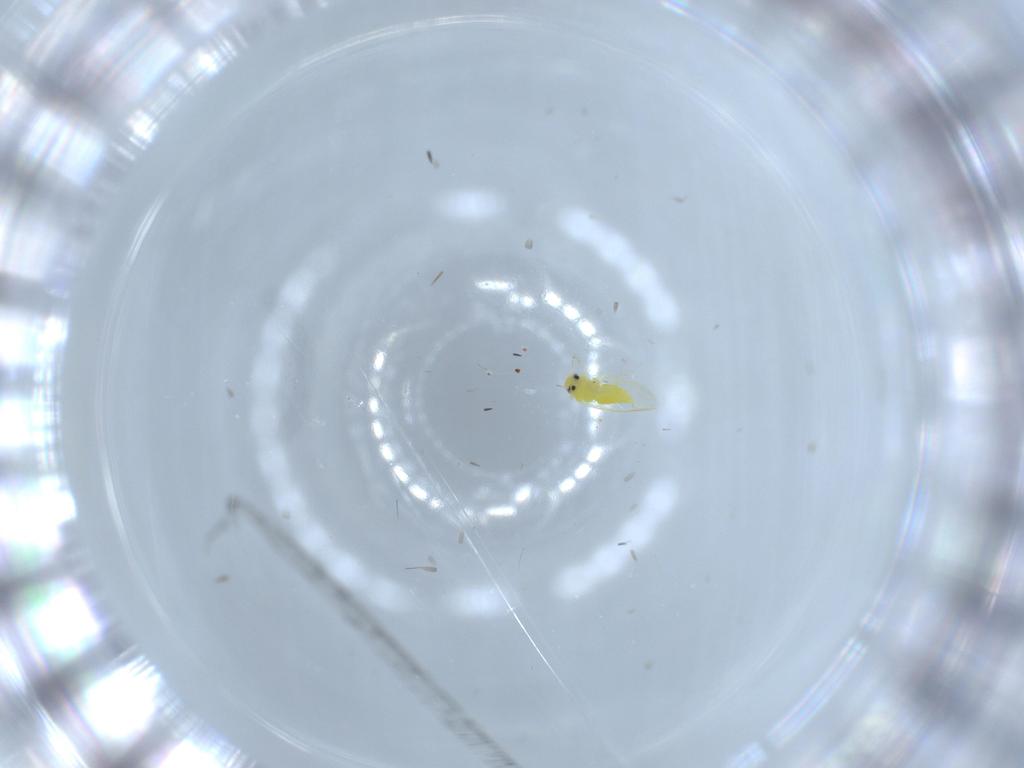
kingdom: Animalia
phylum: Arthropoda
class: Insecta
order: Hemiptera
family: Aleyrodidae
